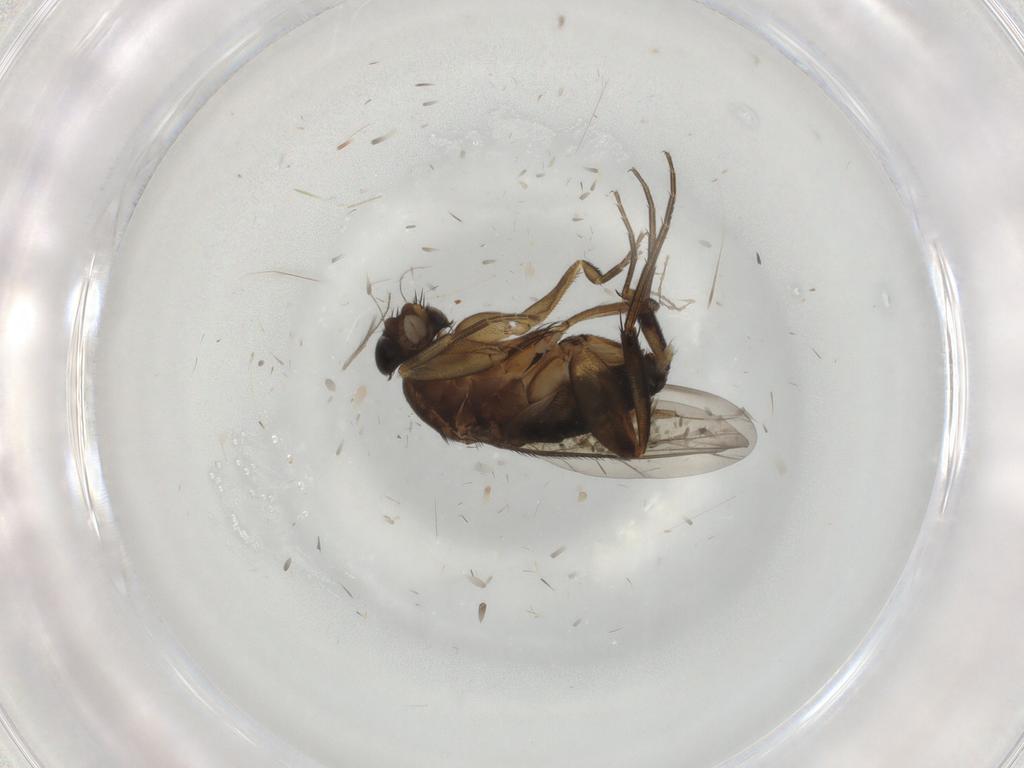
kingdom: Animalia
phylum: Arthropoda
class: Insecta
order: Diptera
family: Phoridae
